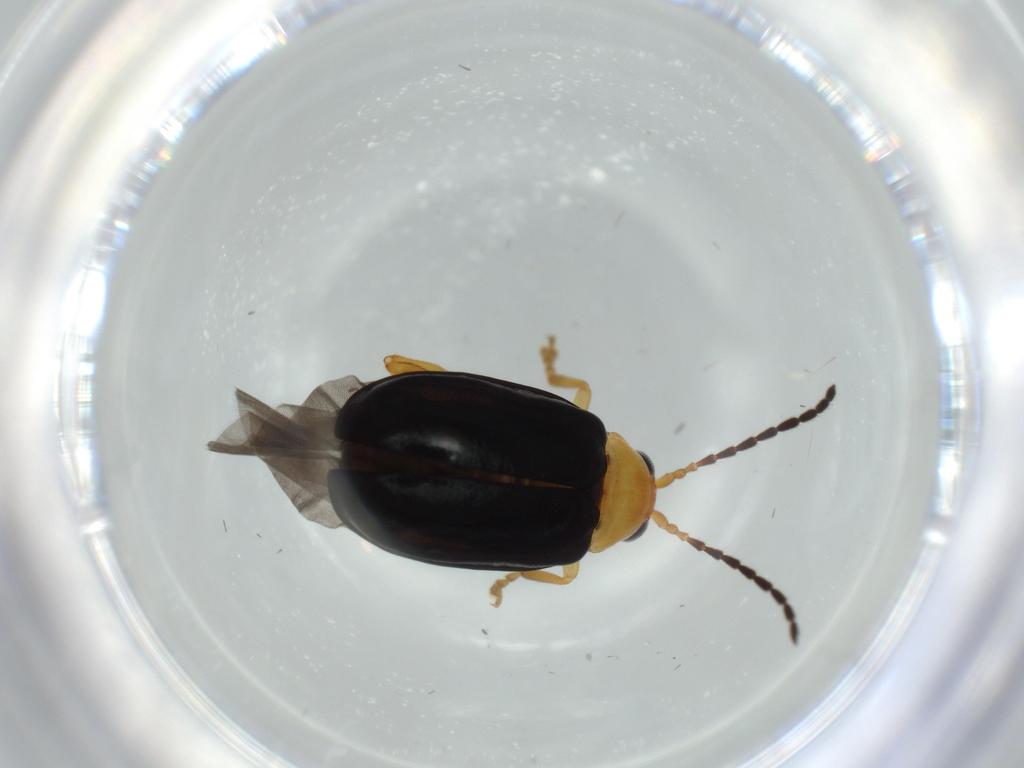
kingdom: Animalia
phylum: Arthropoda
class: Insecta
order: Coleoptera
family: Chrysomelidae
